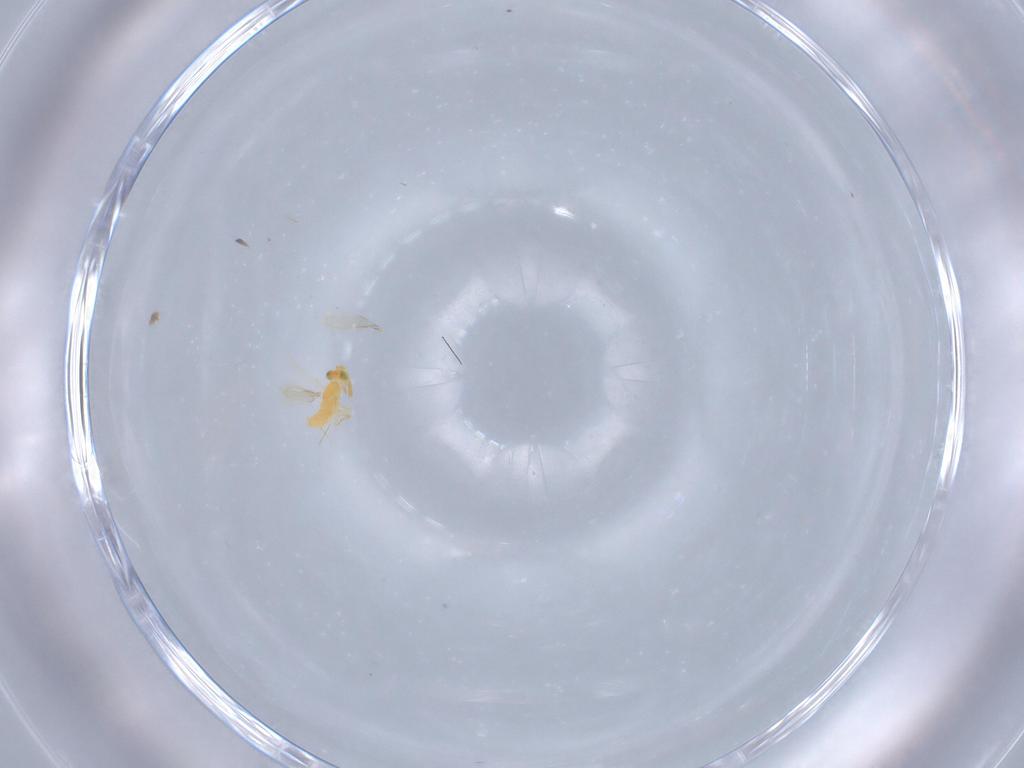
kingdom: Animalia
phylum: Arthropoda
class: Insecta
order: Hymenoptera
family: Aphelinidae
